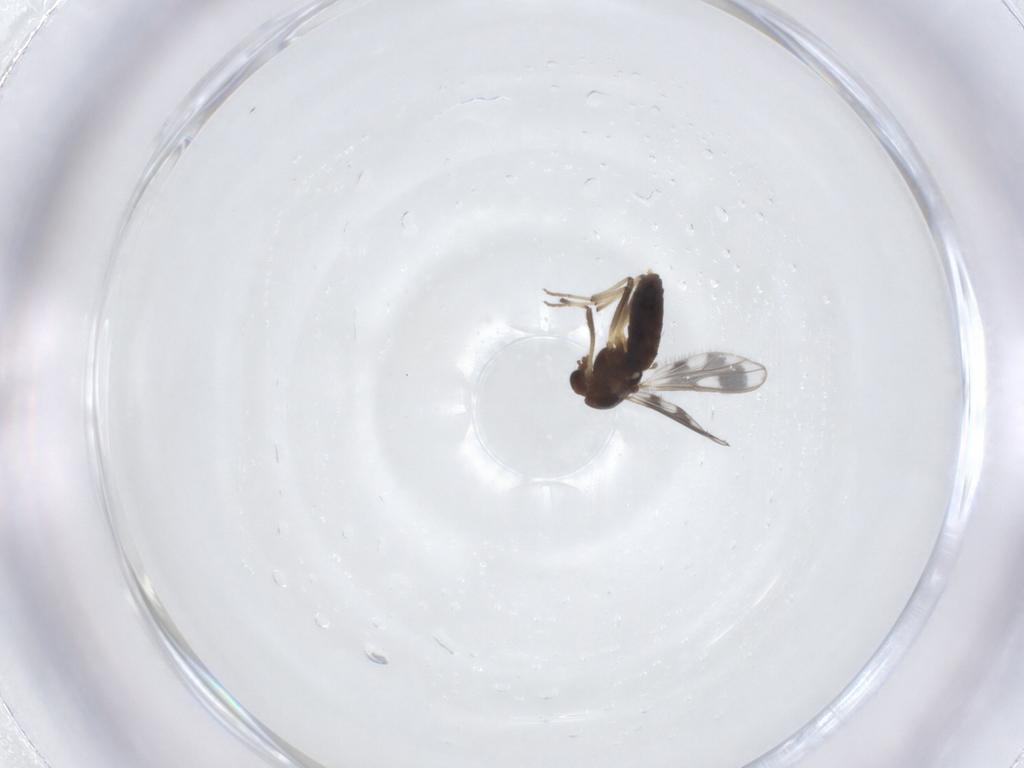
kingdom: Animalia
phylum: Arthropoda
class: Insecta
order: Diptera
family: Chironomidae
